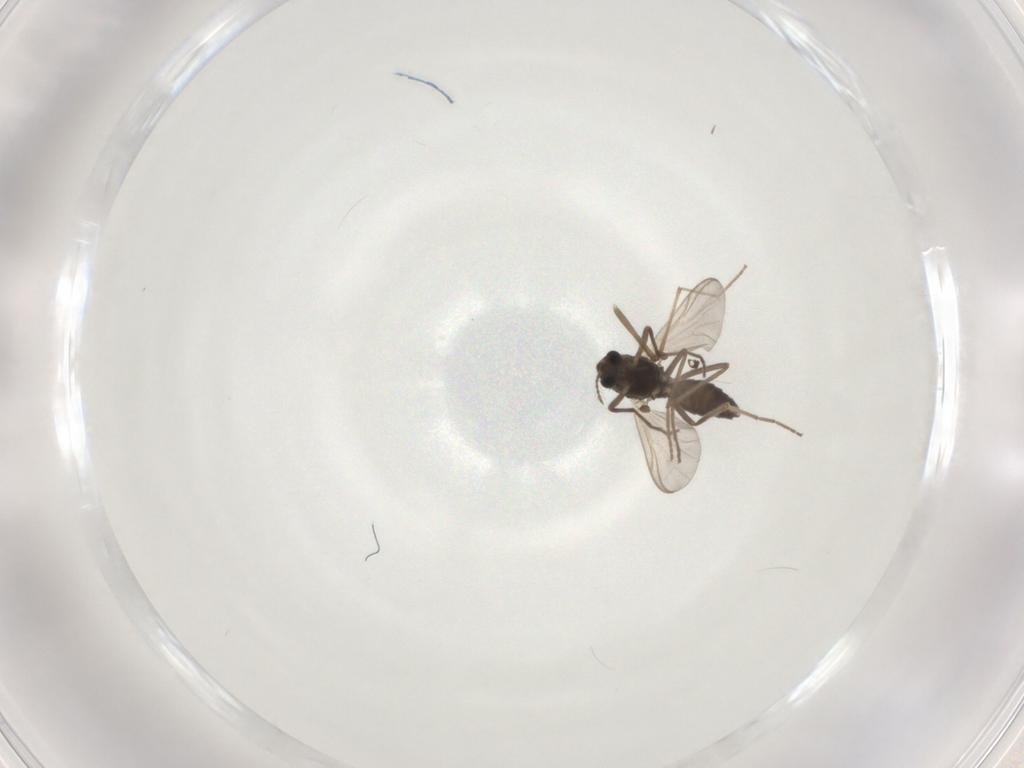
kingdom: Animalia
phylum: Arthropoda
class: Insecta
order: Diptera
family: Chironomidae
